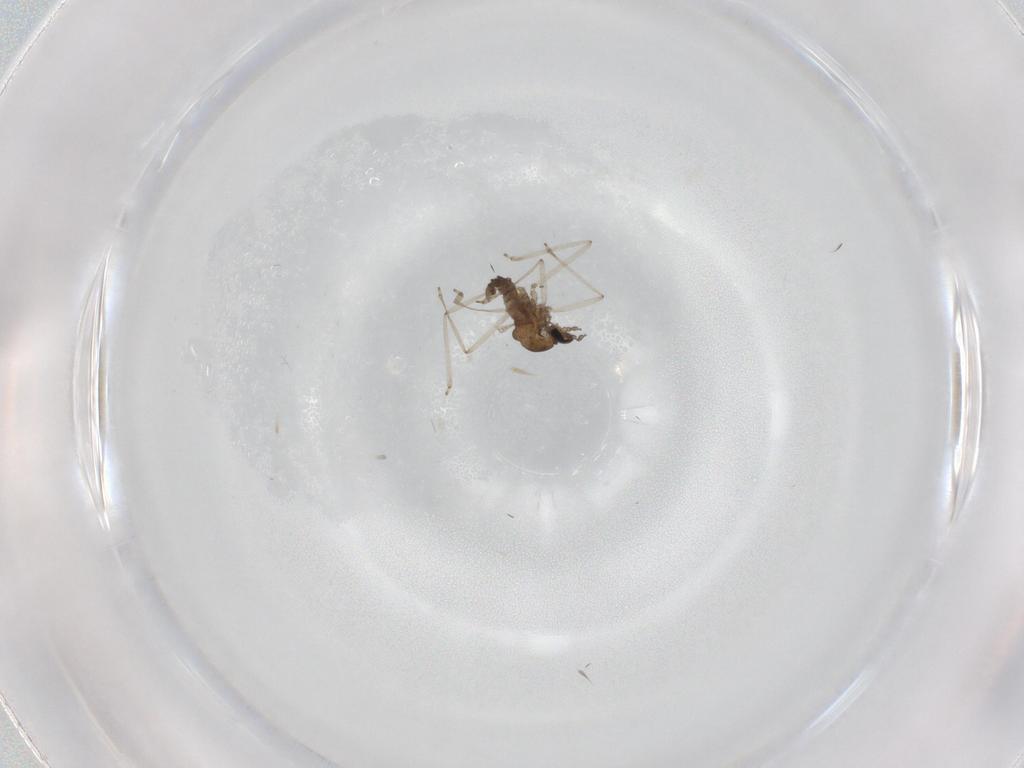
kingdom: Animalia
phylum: Arthropoda
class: Insecta
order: Diptera
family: Cecidomyiidae
